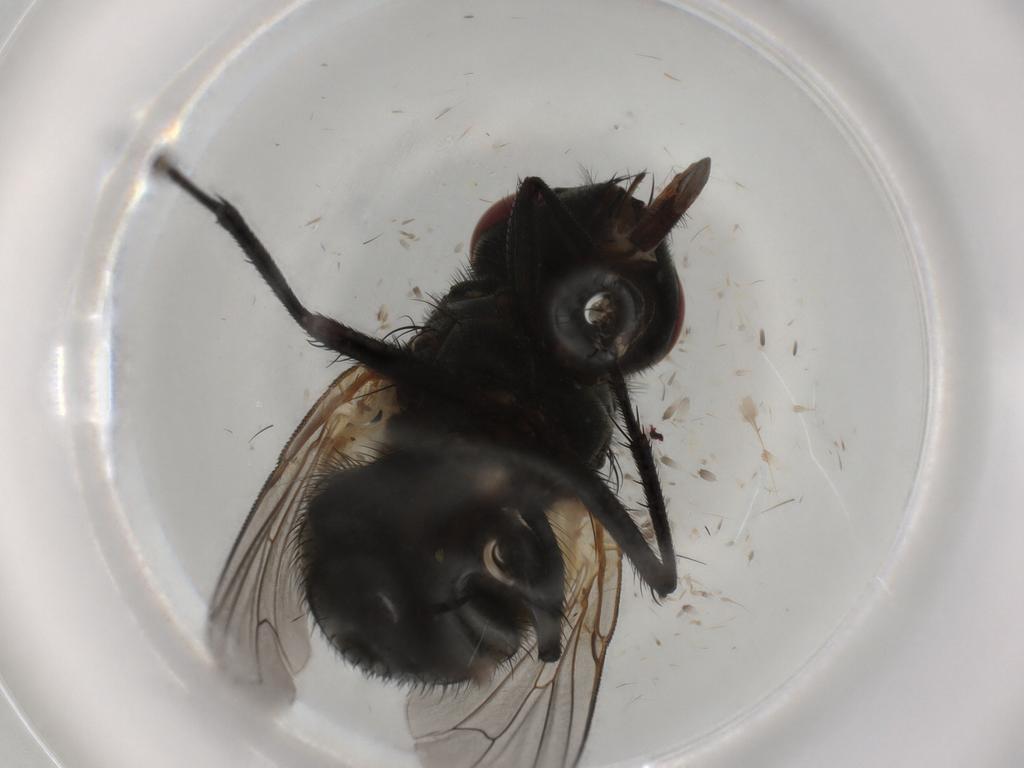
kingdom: Animalia
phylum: Arthropoda
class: Insecta
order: Diptera
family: Muscidae
